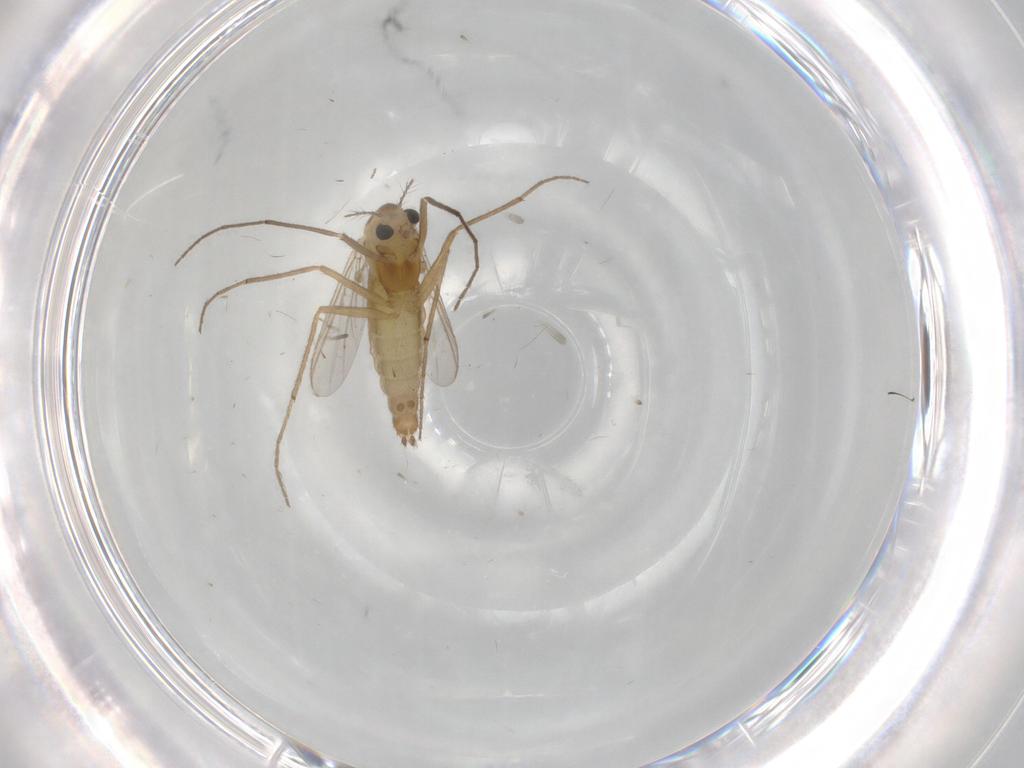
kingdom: Animalia
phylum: Arthropoda
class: Insecta
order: Diptera
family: Chironomidae
